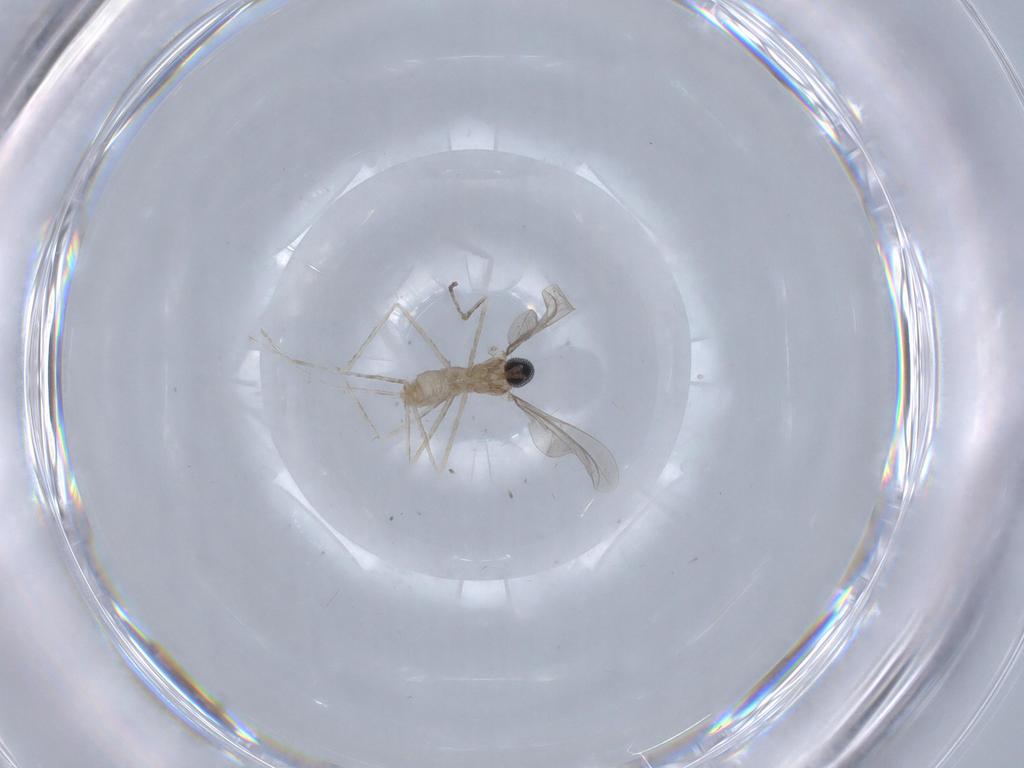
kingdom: Animalia
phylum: Arthropoda
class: Insecta
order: Diptera
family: Cecidomyiidae
